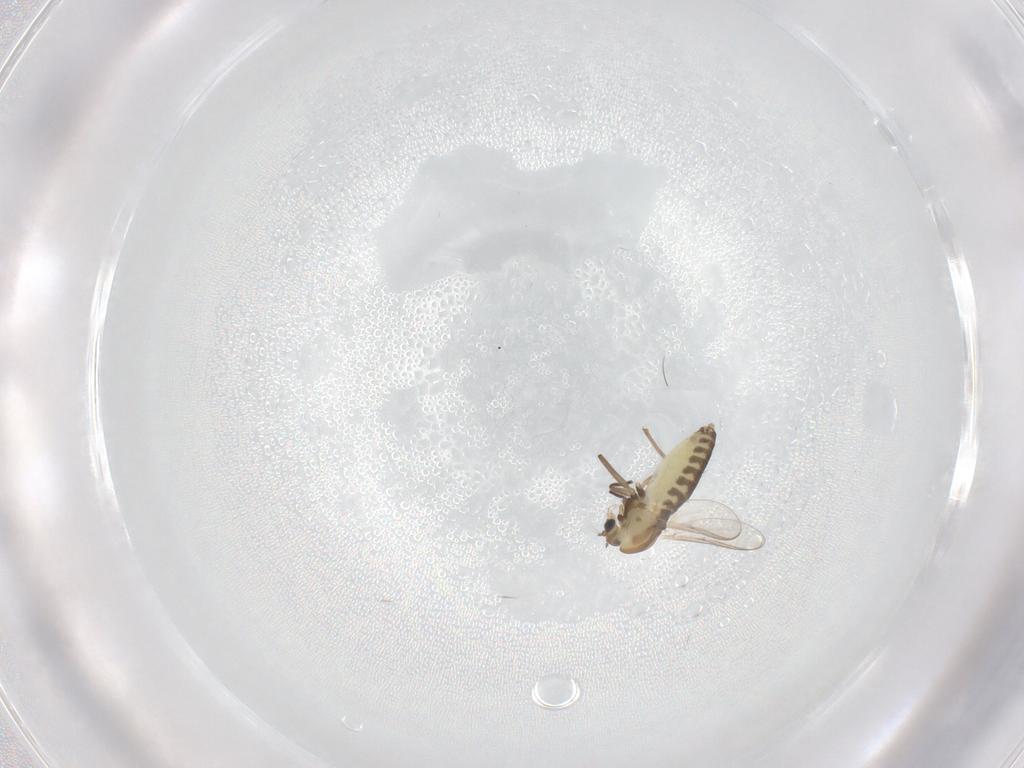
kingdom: Animalia
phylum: Arthropoda
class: Insecta
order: Diptera
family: Chironomidae
